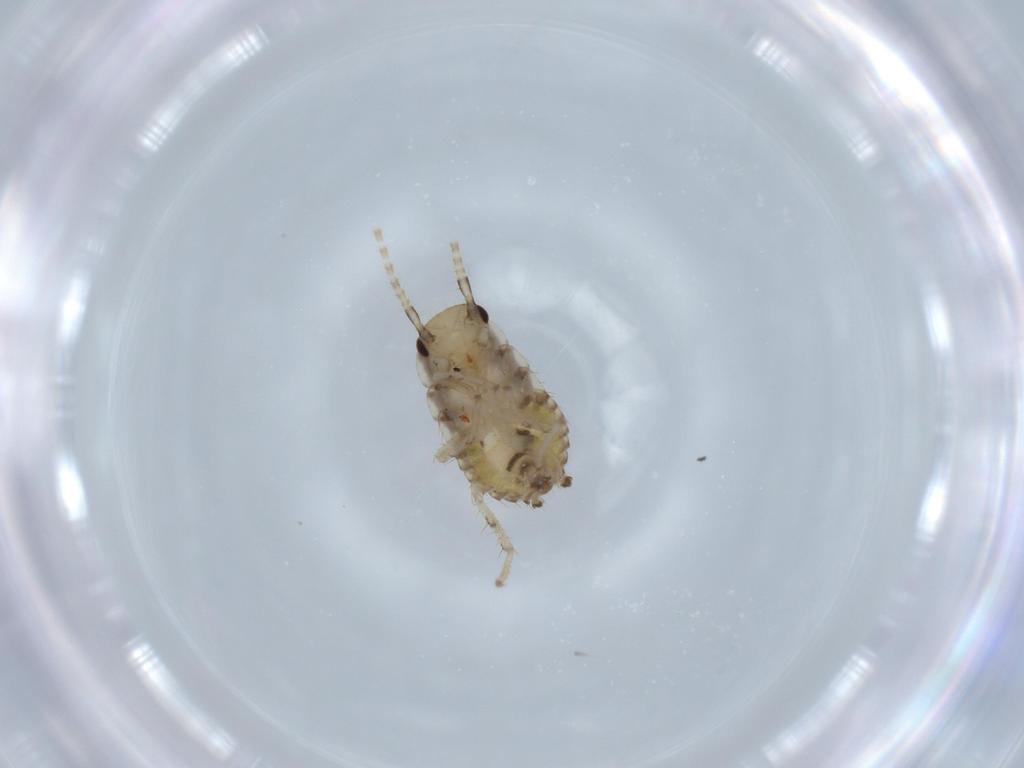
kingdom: Animalia
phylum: Arthropoda
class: Insecta
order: Blattodea
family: Ectobiidae
